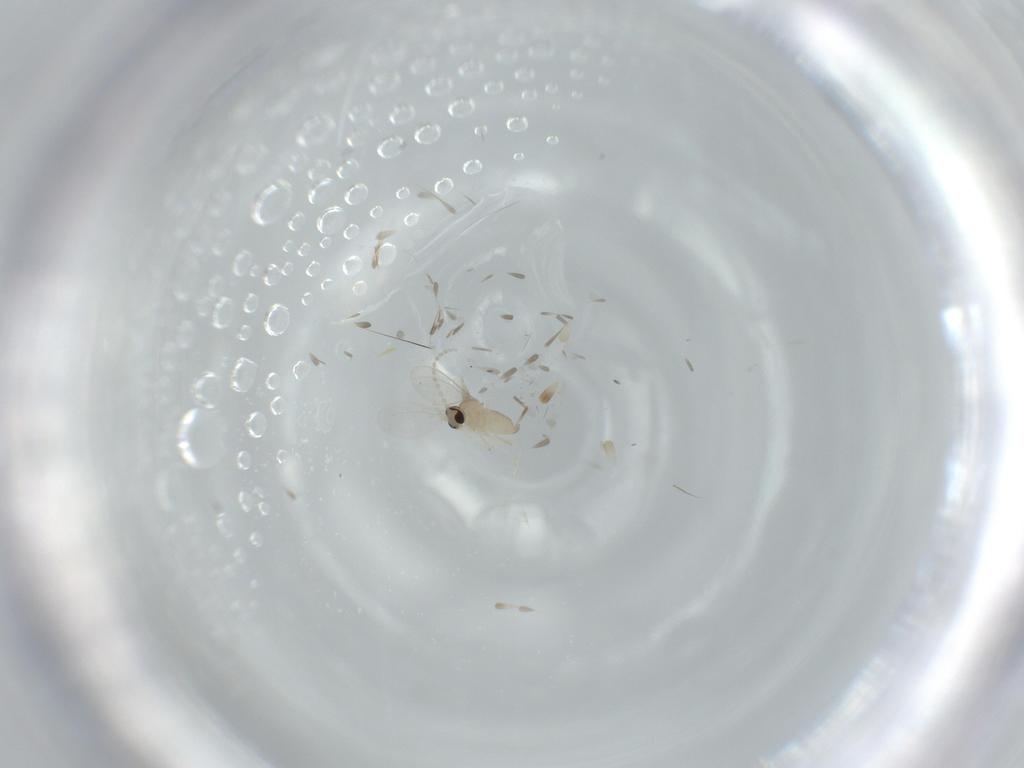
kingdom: Animalia
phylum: Arthropoda
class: Insecta
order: Diptera
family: Cecidomyiidae
